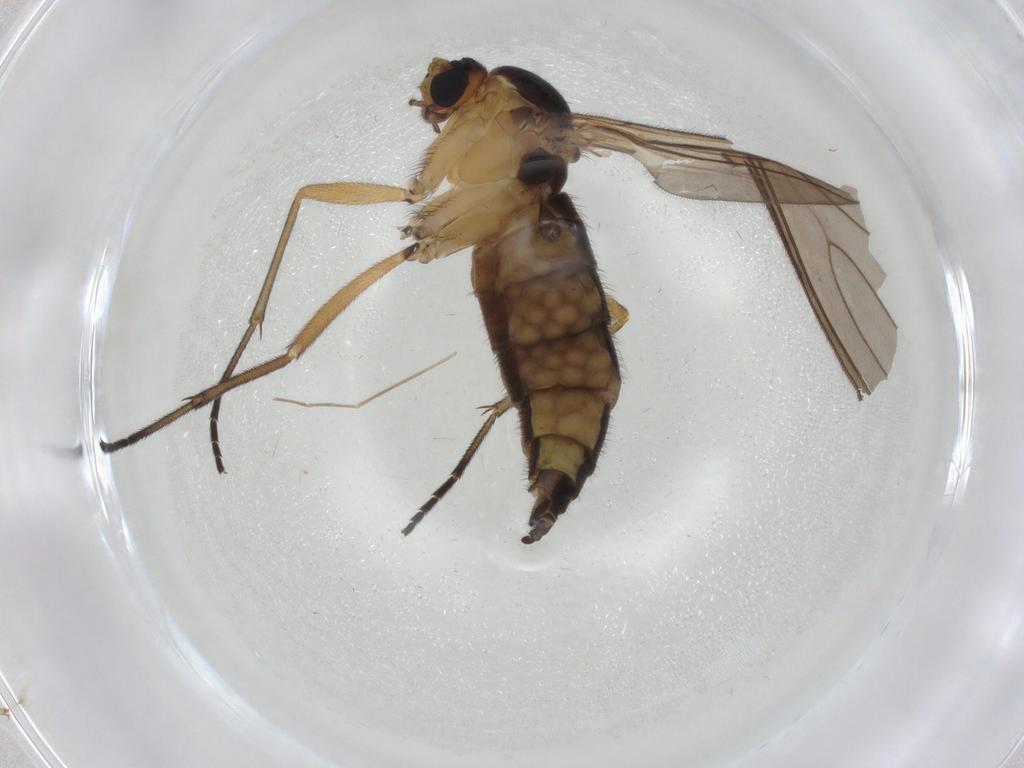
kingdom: Animalia
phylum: Arthropoda
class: Insecta
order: Diptera
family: Sciaridae
